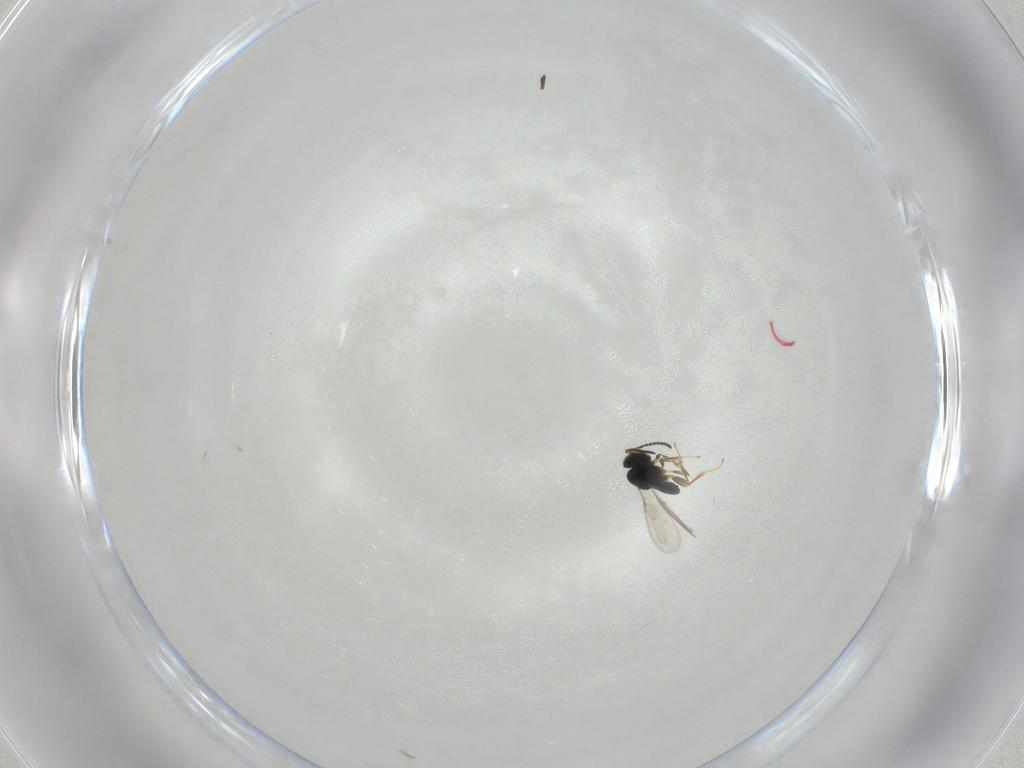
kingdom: Animalia
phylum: Arthropoda
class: Insecta
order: Hymenoptera
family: Scelionidae
